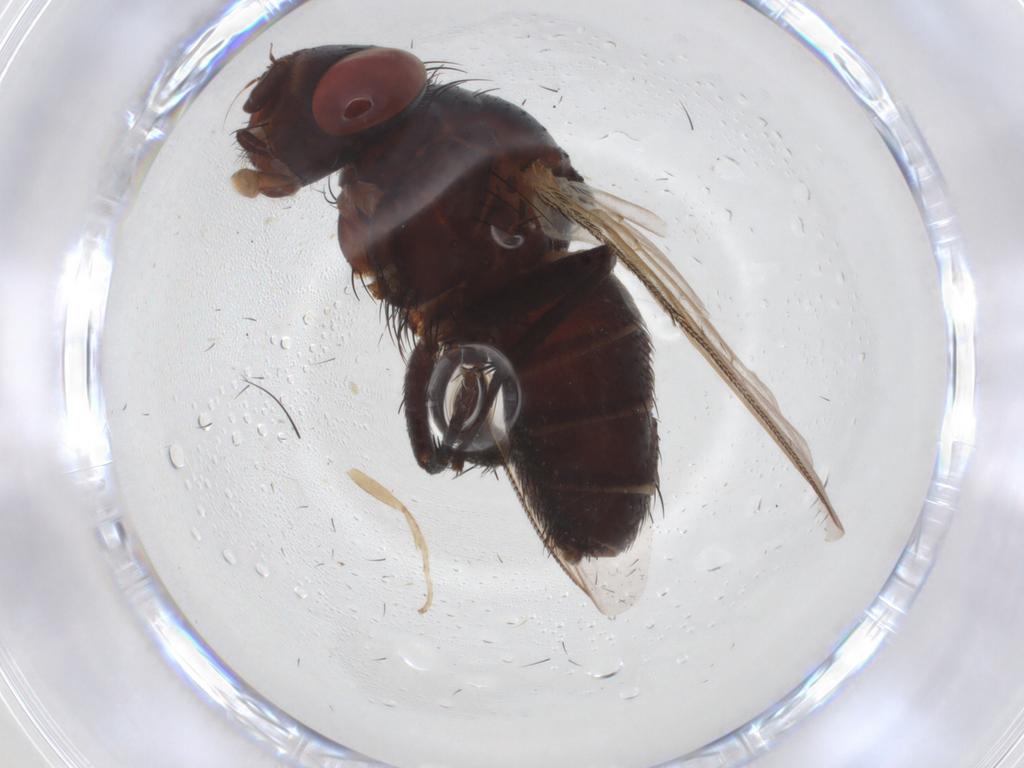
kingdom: Animalia
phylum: Arthropoda
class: Insecta
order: Diptera
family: Sarcophagidae
